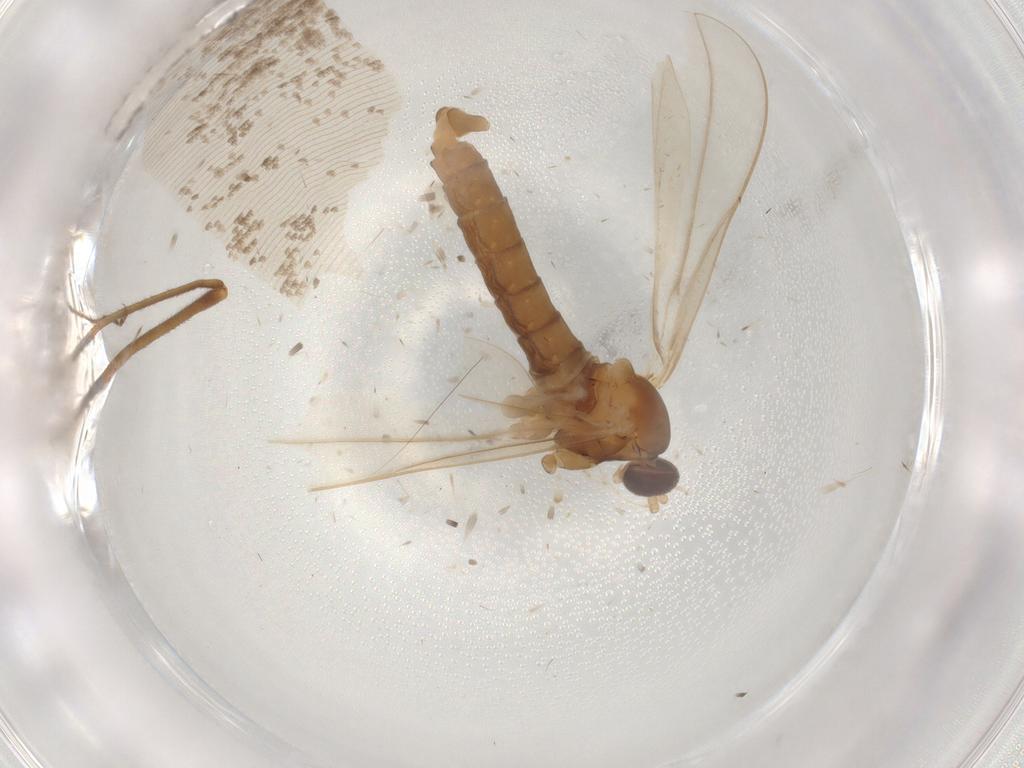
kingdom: Animalia
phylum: Arthropoda
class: Insecta
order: Diptera
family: Cecidomyiidae
